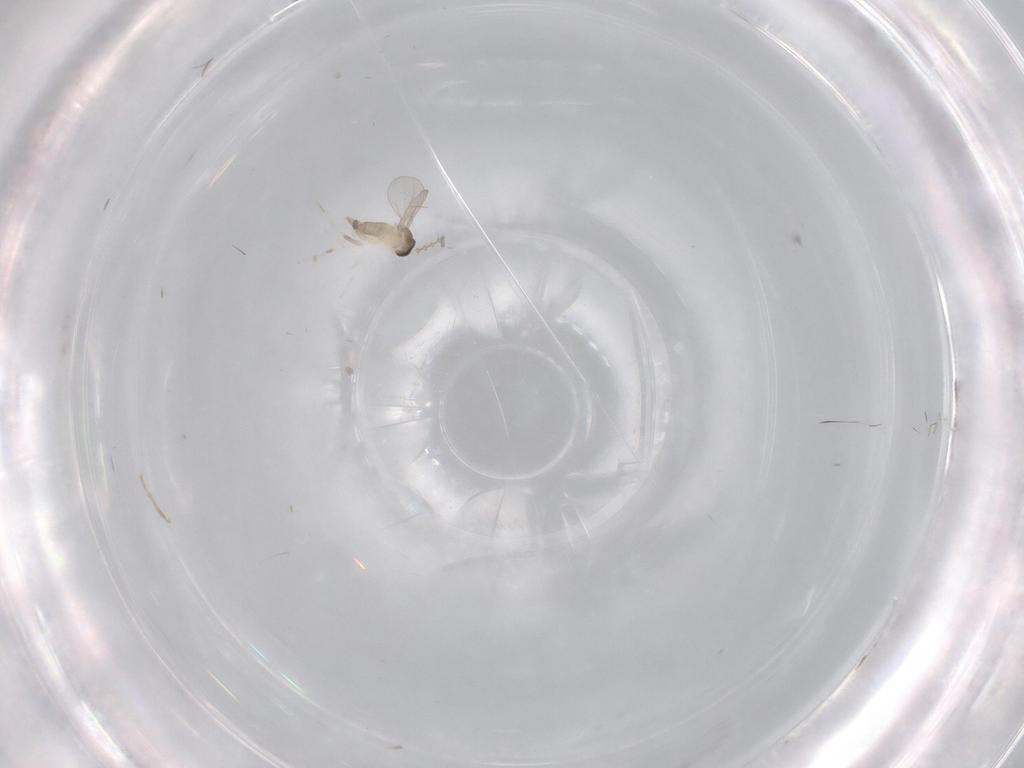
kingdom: Animalia
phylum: Arthropoda
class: Insecta
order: Diptera
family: Cecidomyiidae
